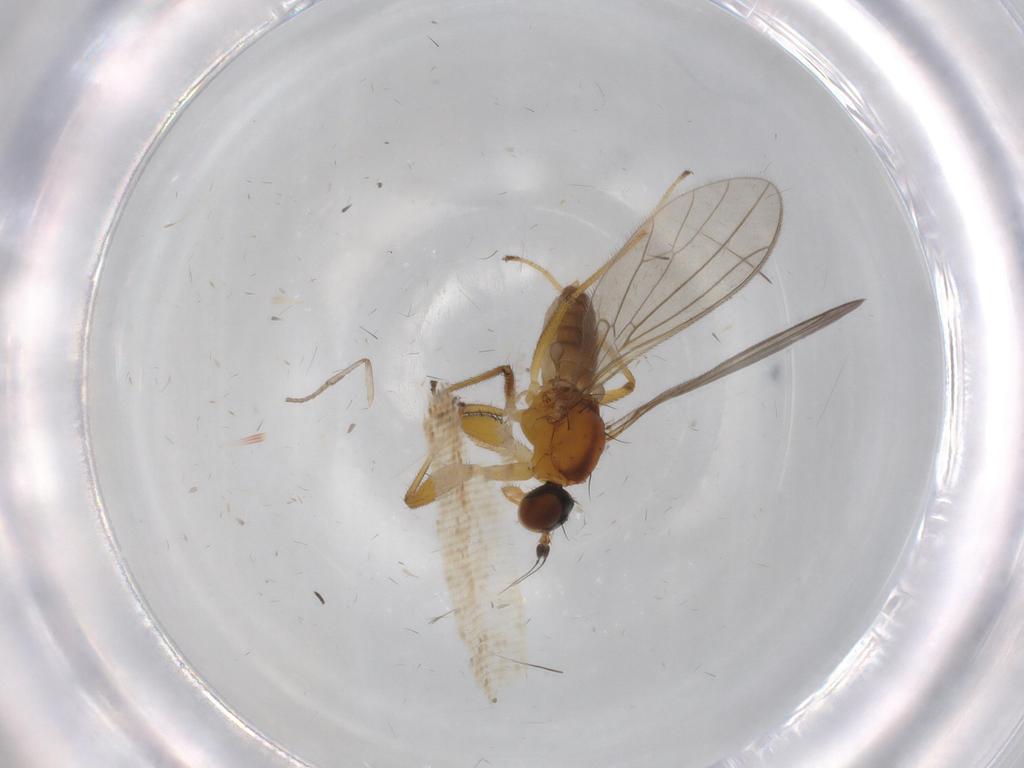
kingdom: Animalia
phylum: Arthropoda
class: Insecta
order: Diptera
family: Empididae
